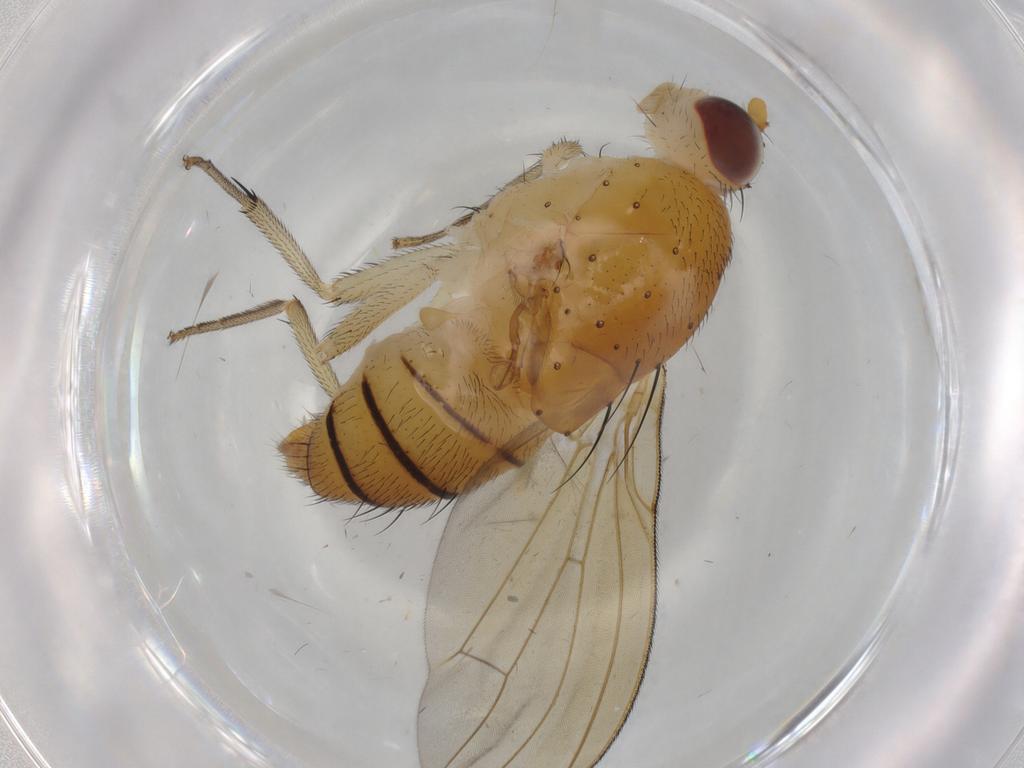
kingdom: Animalia
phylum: Arthropoda
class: Insecta
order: Diptera
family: Lauxaniidae
